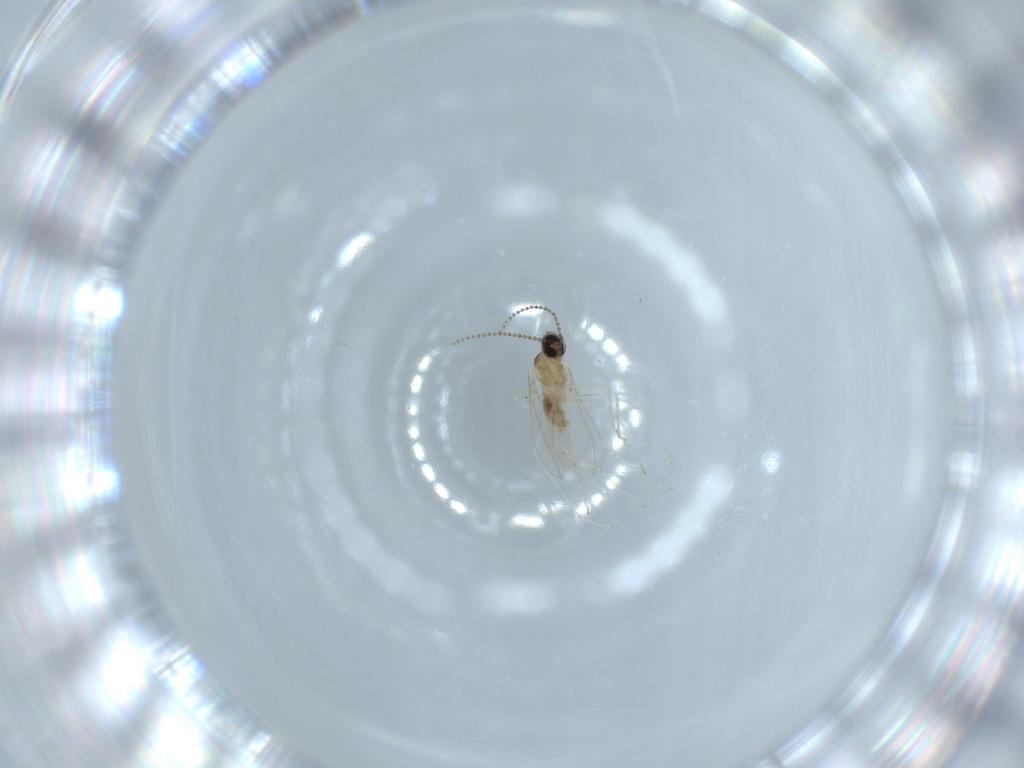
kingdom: Animalia
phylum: Arthropoda
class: Insecta
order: Diptera
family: Cecidomyiidae
